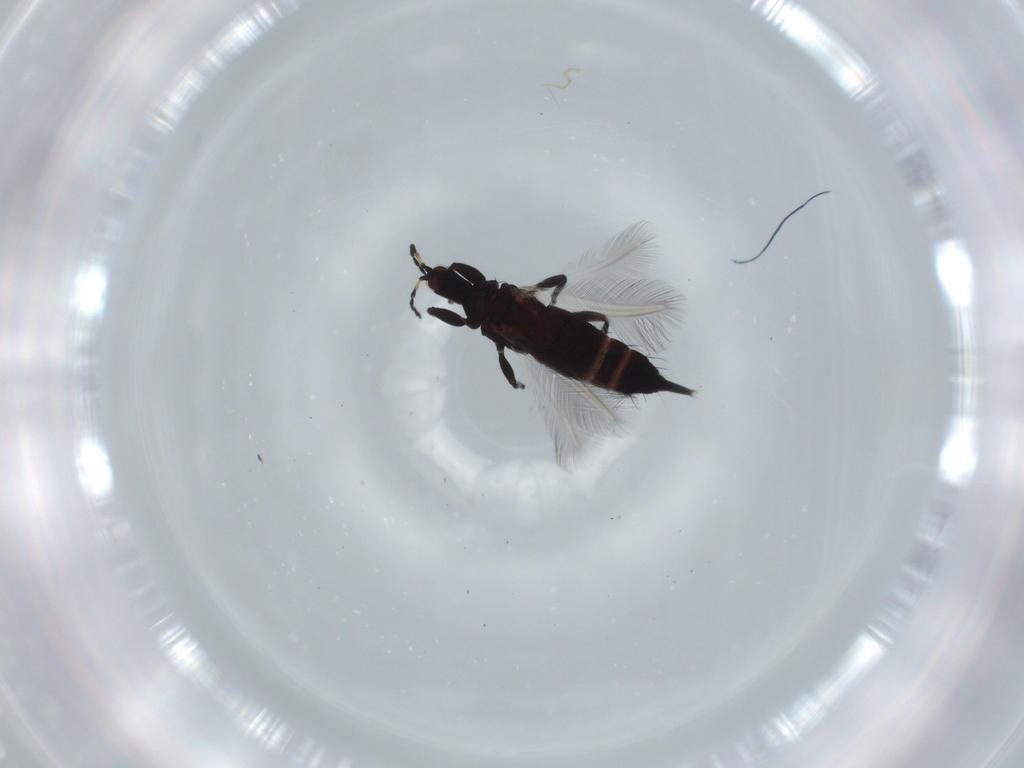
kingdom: Animalia
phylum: Arthropoda
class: Insecta
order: Thysanoptera
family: Phlaeothripidae
